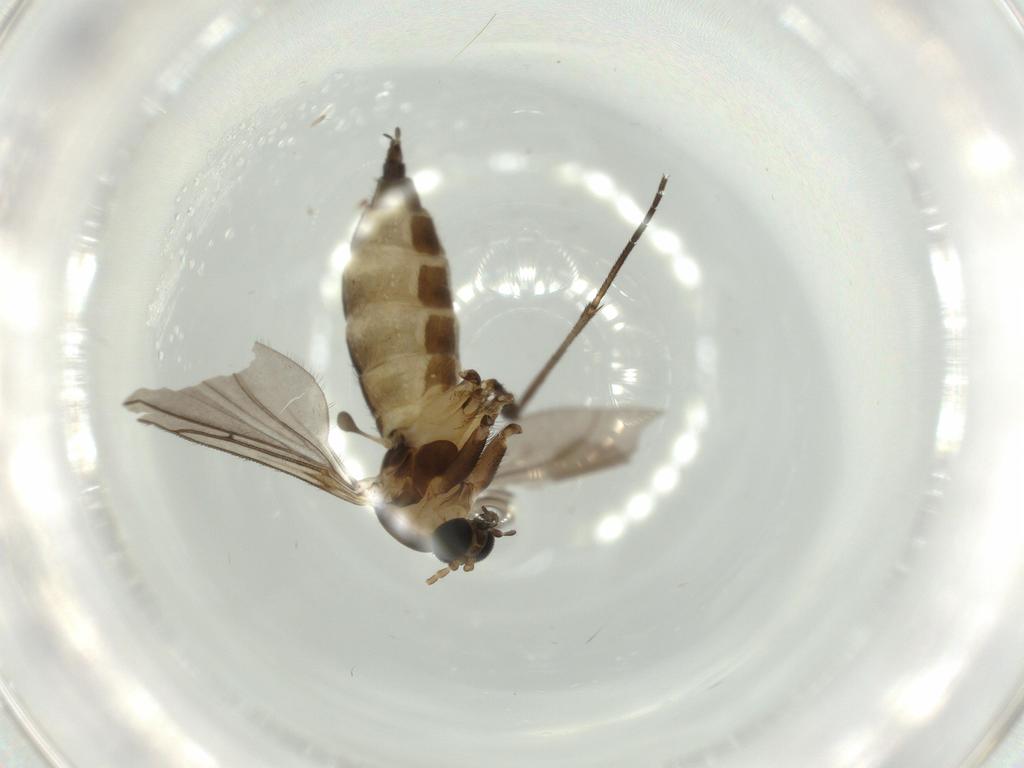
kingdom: Animalia
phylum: Arthropoda
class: Insecta
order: Diptera
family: Sciaridae
